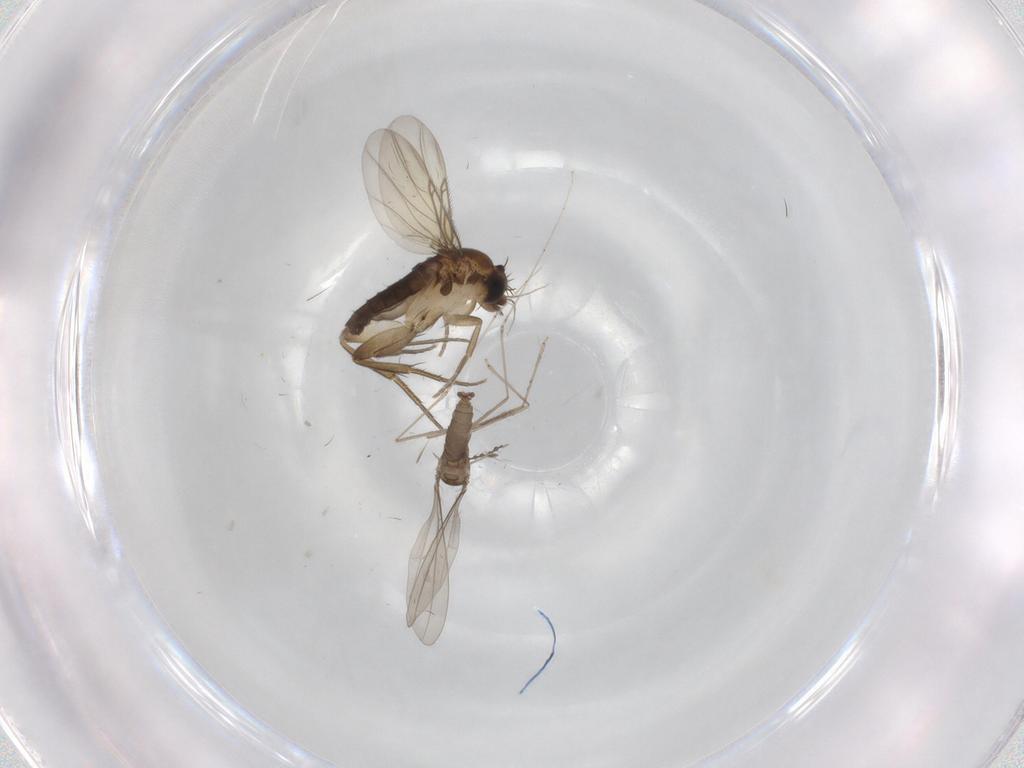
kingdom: Animalia
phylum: Arthropoda
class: Insecta
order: Diptera
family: Phoridae
